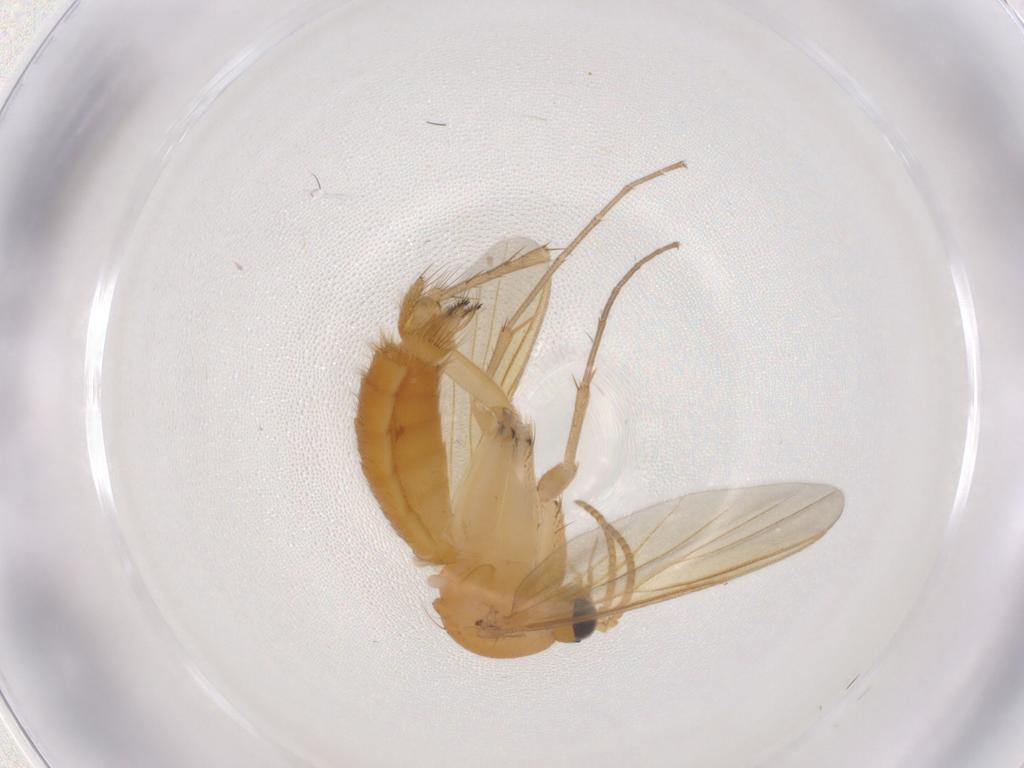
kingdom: Animalia
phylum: Arthropoda
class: Insecta
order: Diptera
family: Mycetophilidae
